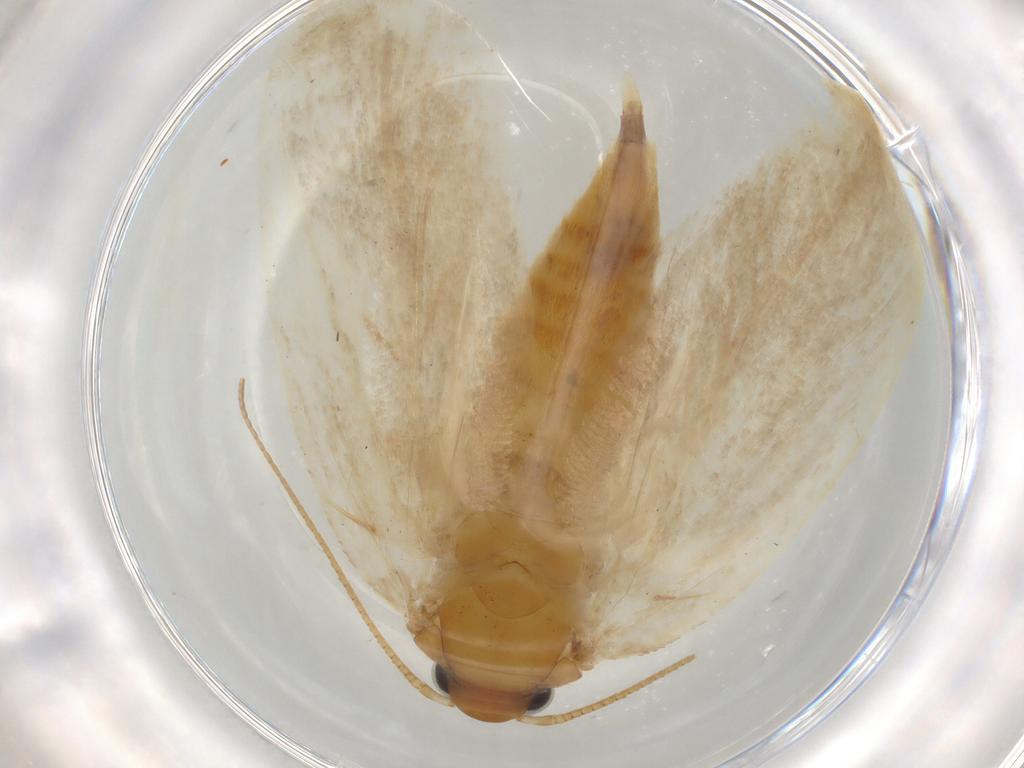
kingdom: Animalia
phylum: Arthropoda
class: Insecta
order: Lepidoptera
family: Oecophoridae
